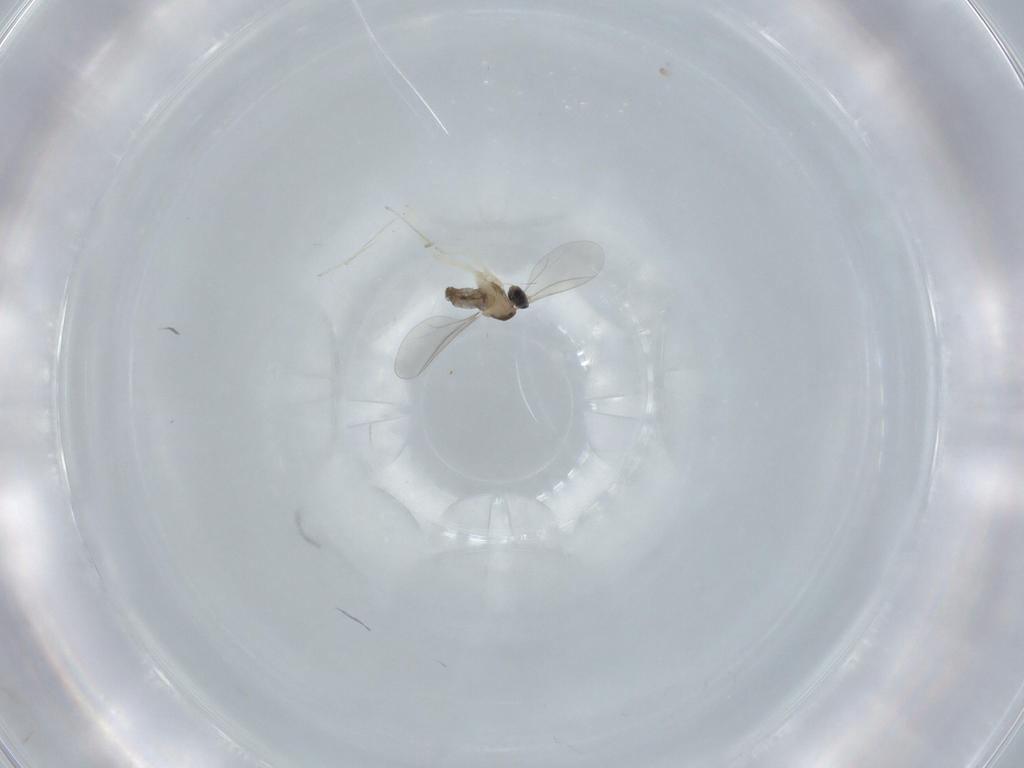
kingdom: Animalia
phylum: Arthropoda
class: Insecta
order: Diptera
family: Cecidomyiidae
